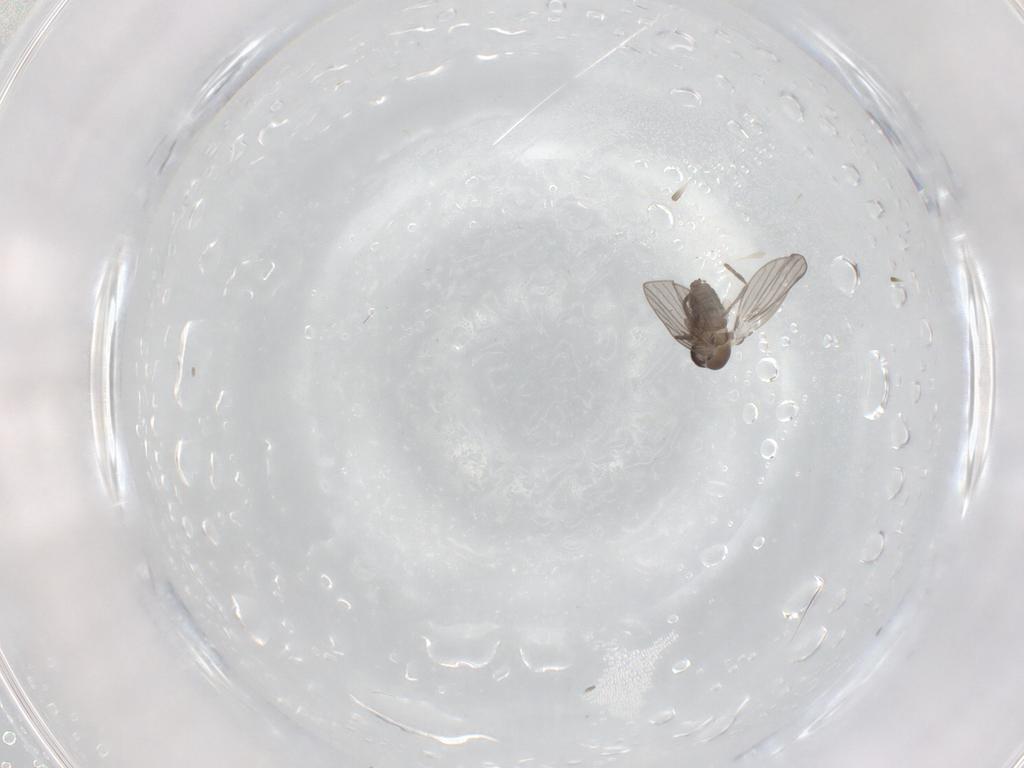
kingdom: Animalia
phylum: Arthropoda
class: Insecta
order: Diptera
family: Psychodidae
